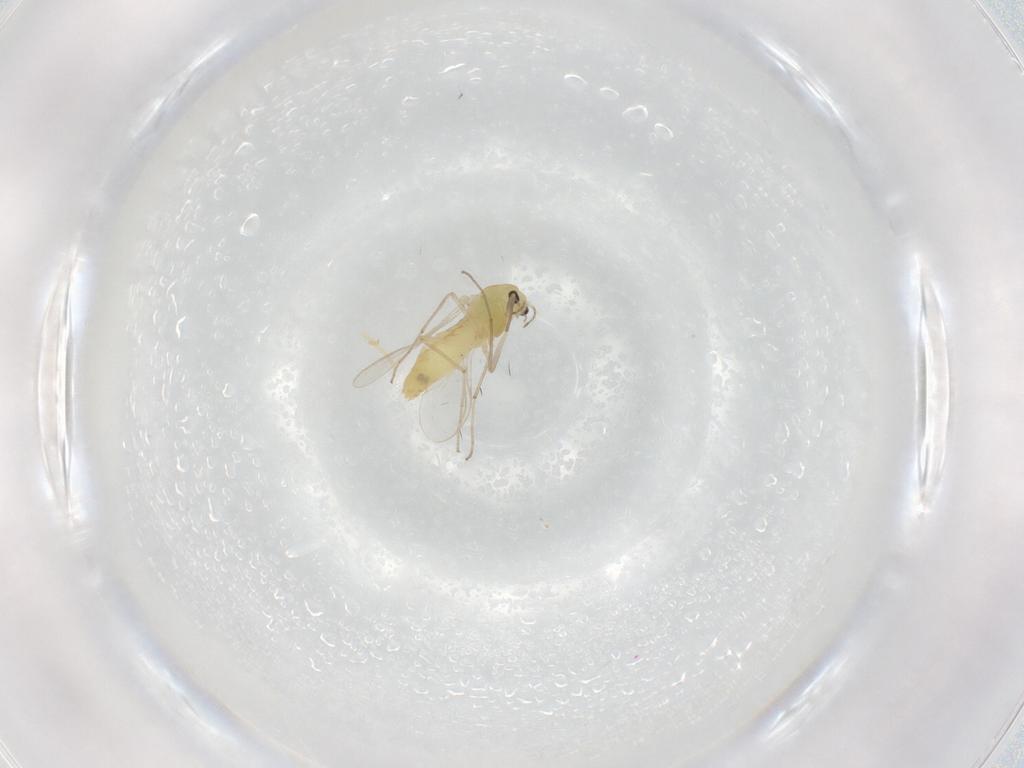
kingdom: Animalia
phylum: Arthropoda
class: Insecta
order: Diptera
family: Chironomidae
